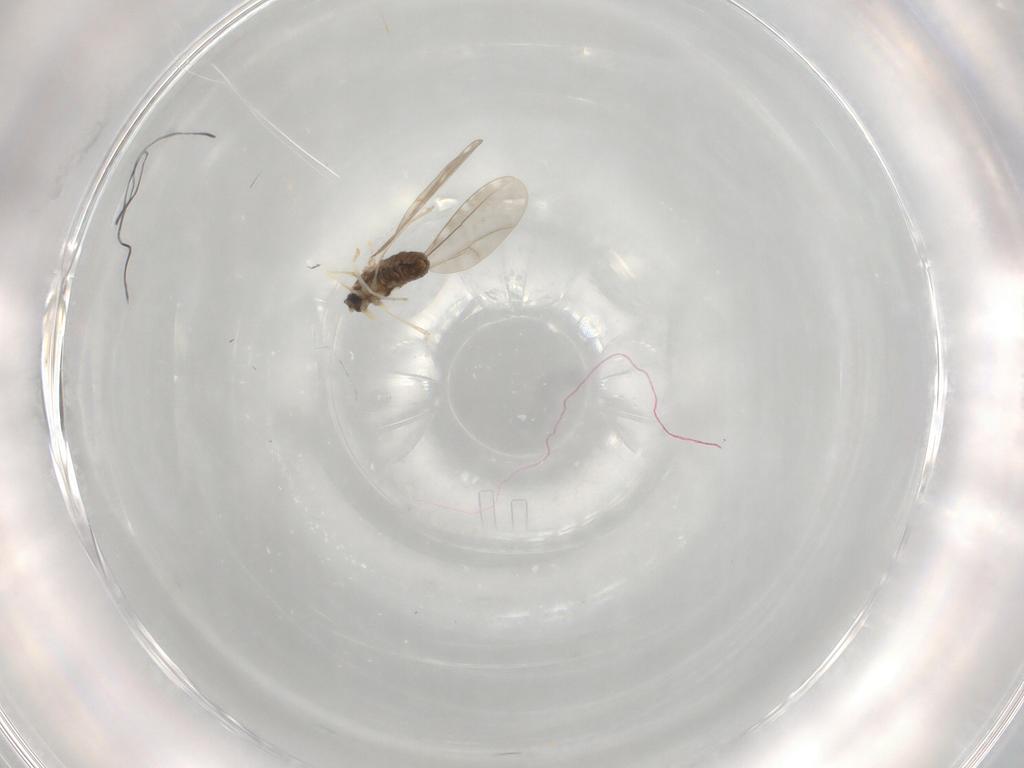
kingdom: Animalia
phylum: Arthropoda
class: Insecta
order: Diptera
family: Cecidomyiidae
